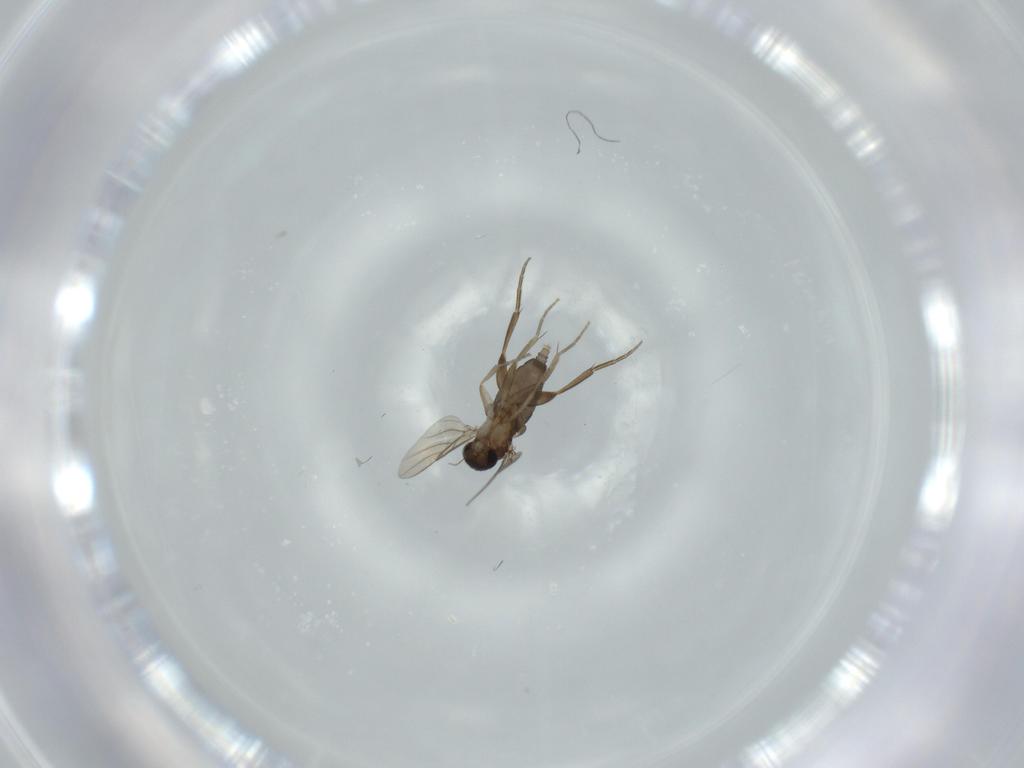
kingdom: Animalia
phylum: Arthropoda
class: Insecta
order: Diptera
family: Phoridae
